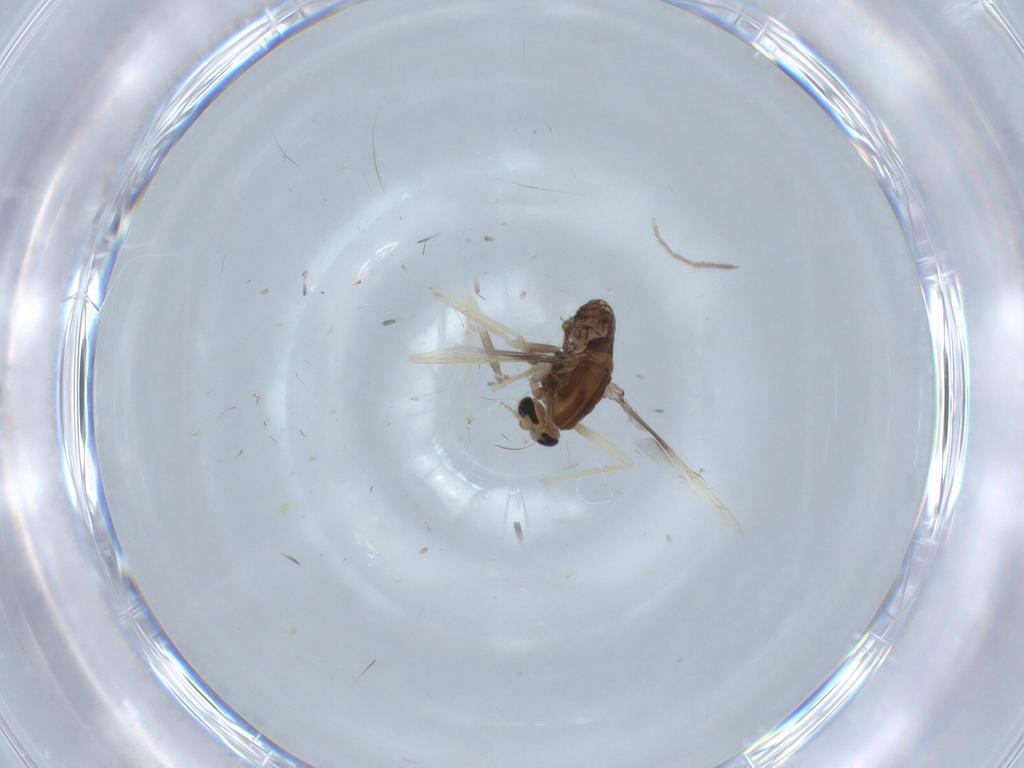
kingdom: Animalia
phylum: Arthropoda
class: Insecta
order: Diptera
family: Chironomidae
